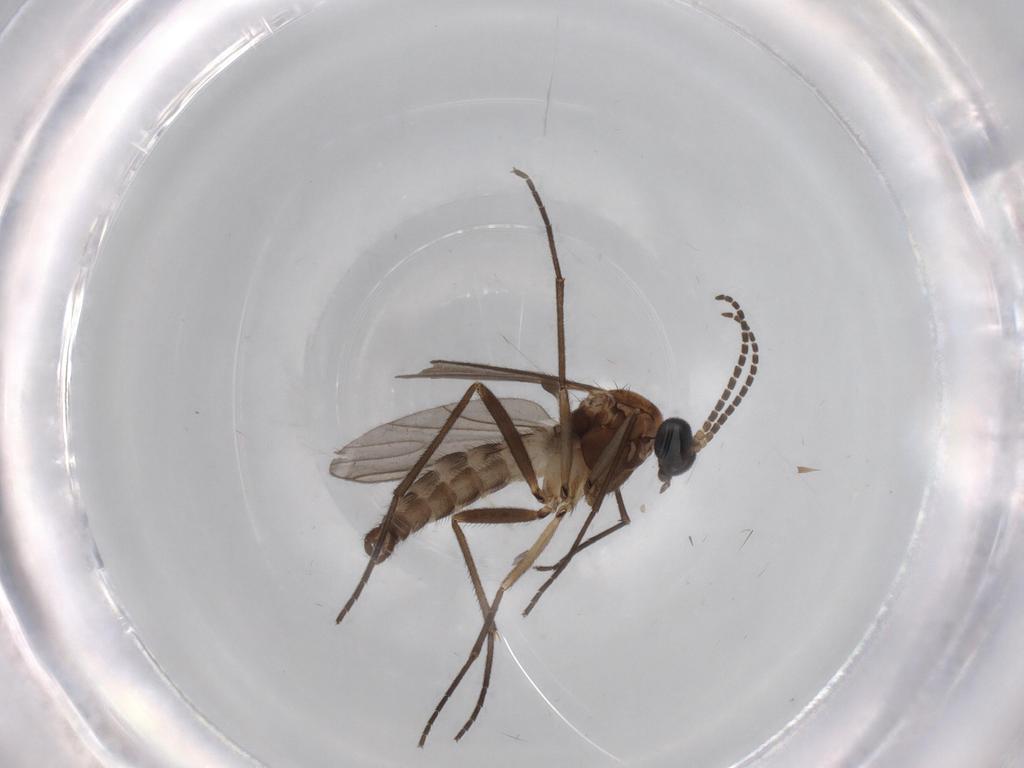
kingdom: Animalia
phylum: Arthropoda
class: Insecta
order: Diptera
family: Sciaridae
